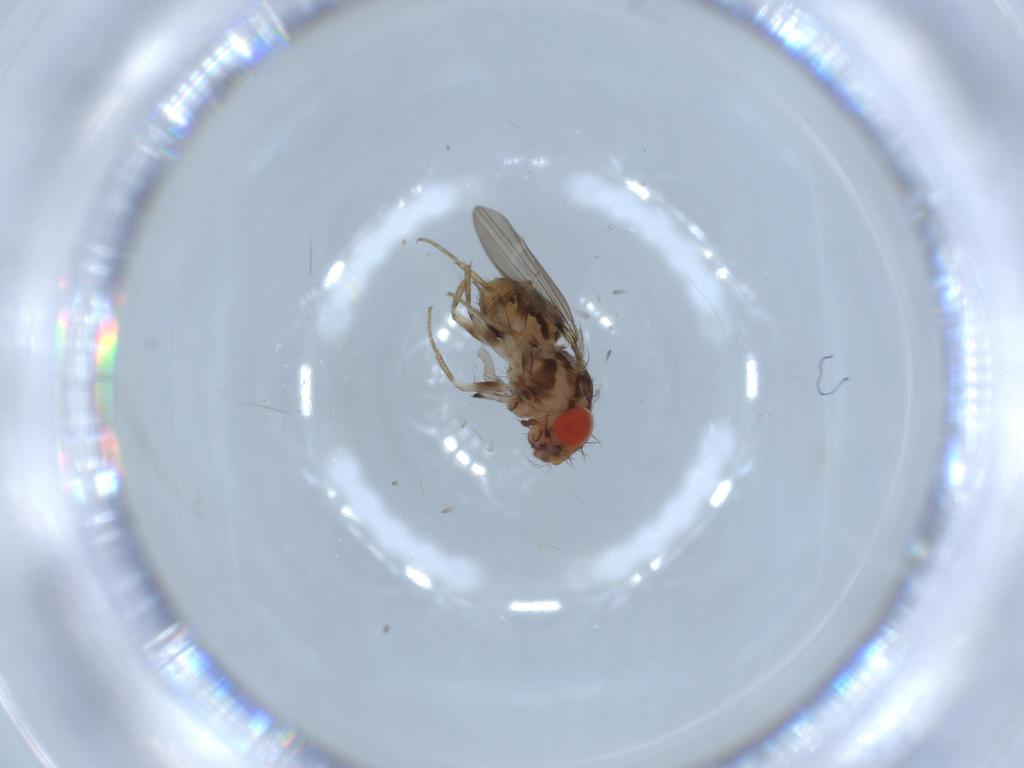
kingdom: Animalia
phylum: Arthropoda
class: Insecta
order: Diptera
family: Drosophilidae
